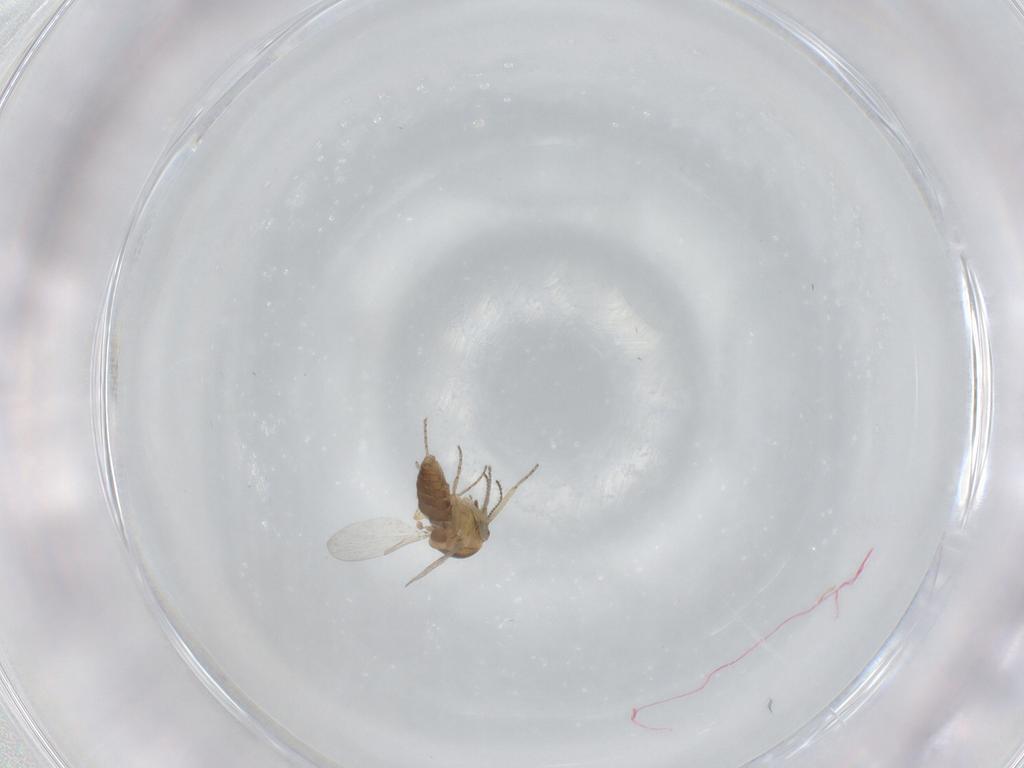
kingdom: Animalia
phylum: Arthropoda
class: Insecta
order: Diptera
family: Ceratopogonidae
